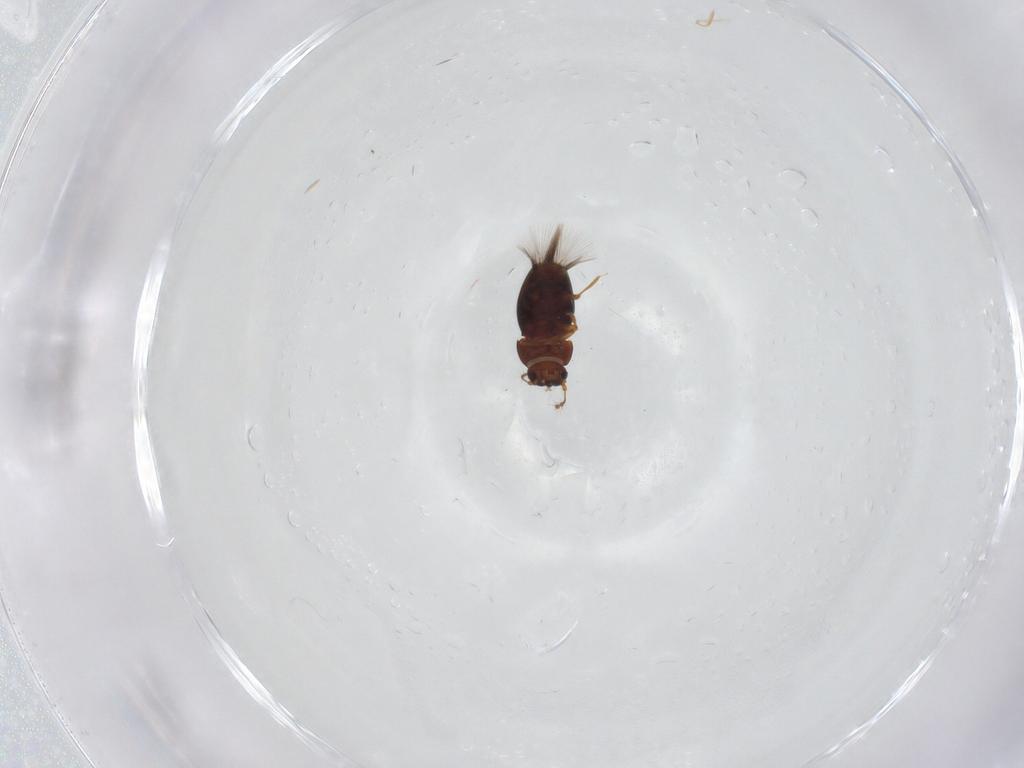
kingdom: Animalia
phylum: Arthropoda
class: Insecta
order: Coleoptera
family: Ptiliidae
